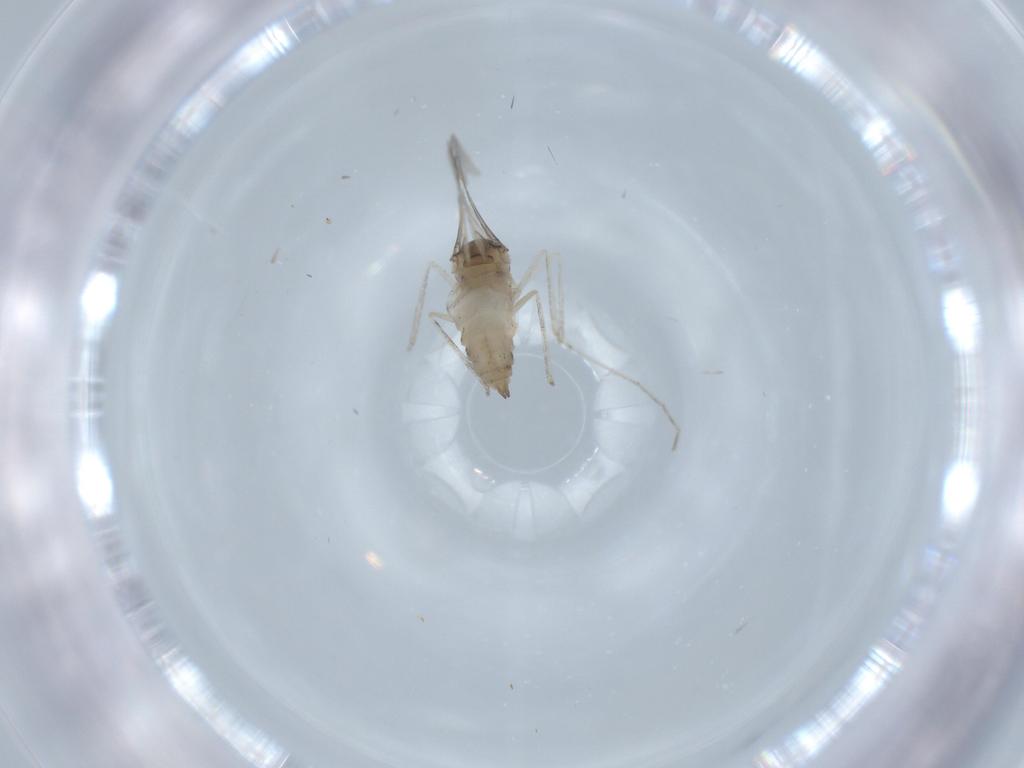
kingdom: Animalia
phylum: Arthropoda
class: Insecta
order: Diptera
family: Cecidomyiidae
